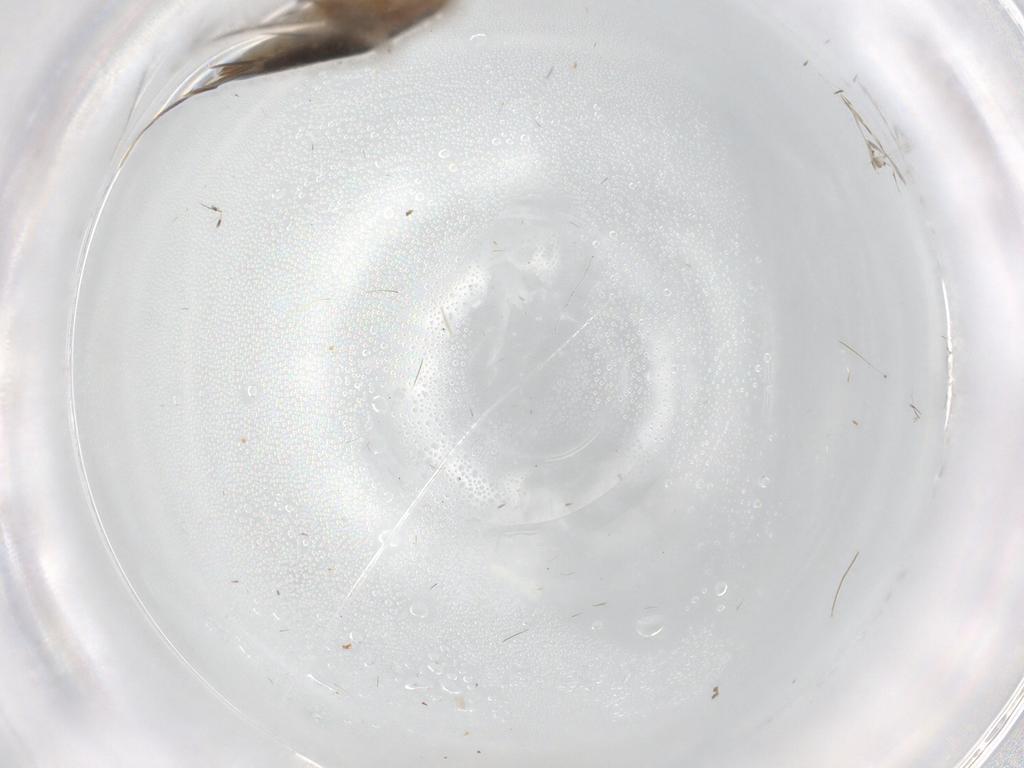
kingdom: Animalia
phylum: Arthropoda
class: Insecta
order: Lepidoptera
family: Cosmopterigidae
